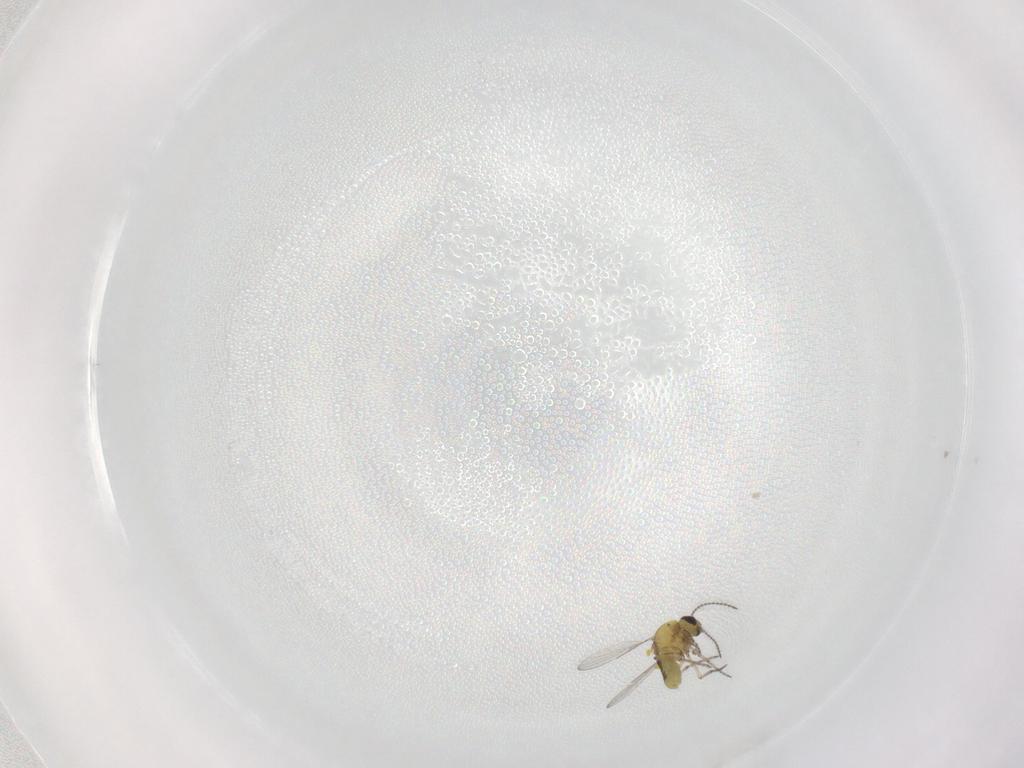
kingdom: Animalia
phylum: Arthropoda
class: Insecta
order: Diptera
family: Ceratopogonidae
